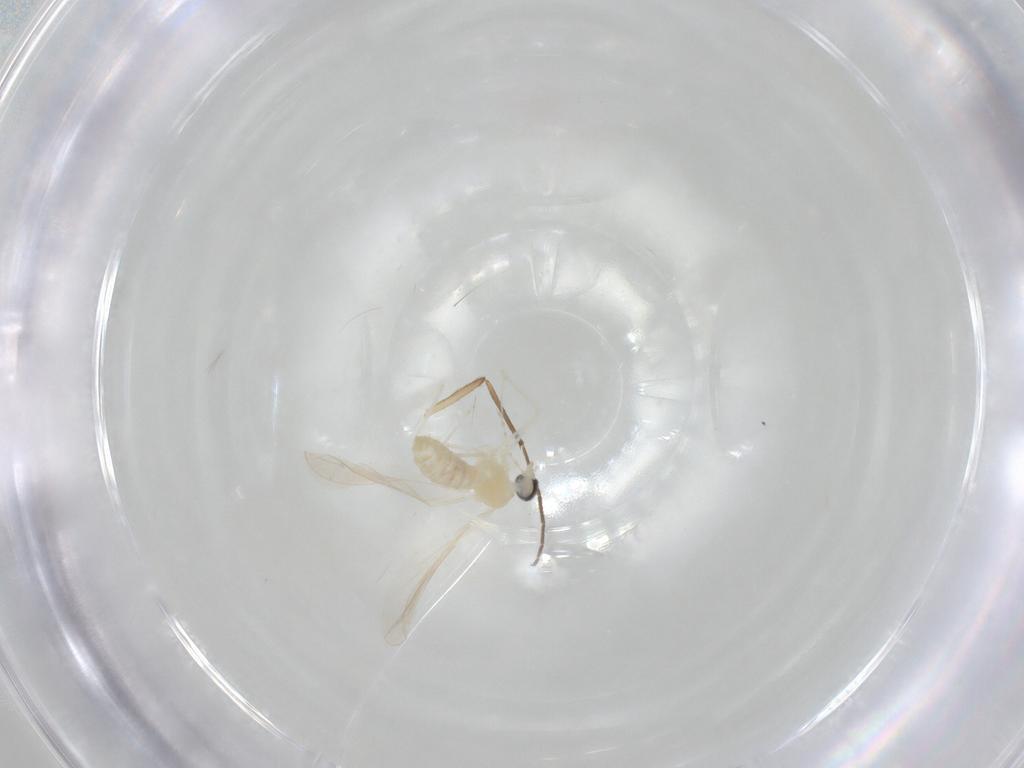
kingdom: Animalia
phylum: Arthropoda
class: Insecta
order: Diptera
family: Chironomidae
